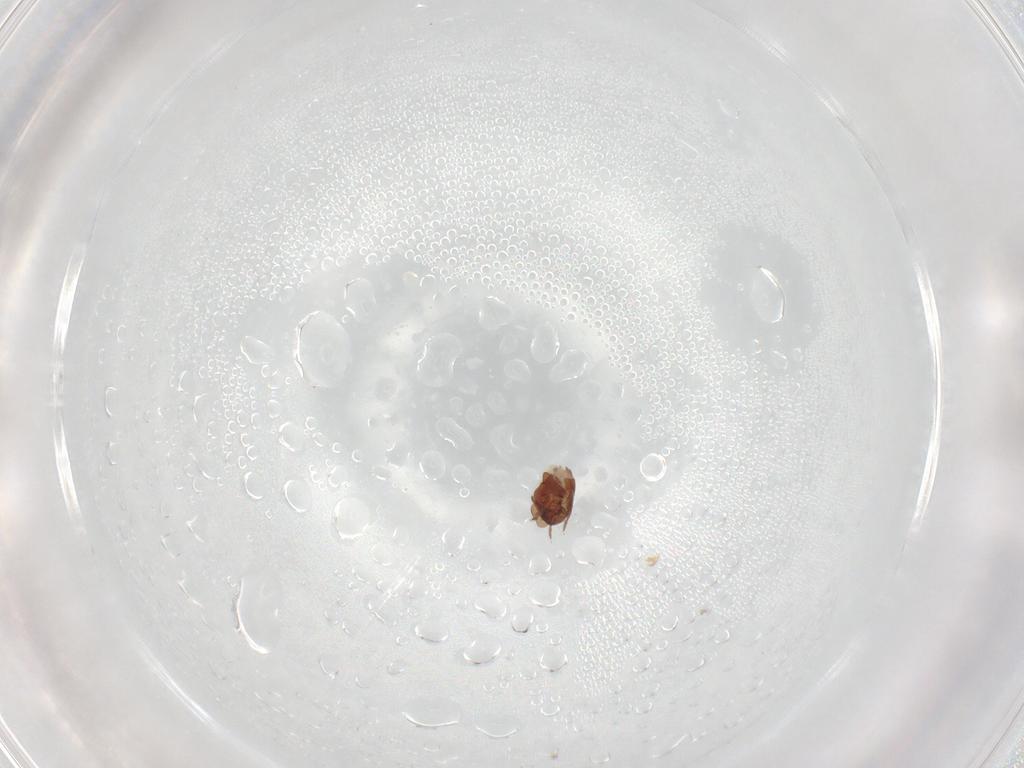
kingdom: Animalia
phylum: Arthropoda
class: Arachnida
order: Sarcoptiformes
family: Galumnidae
